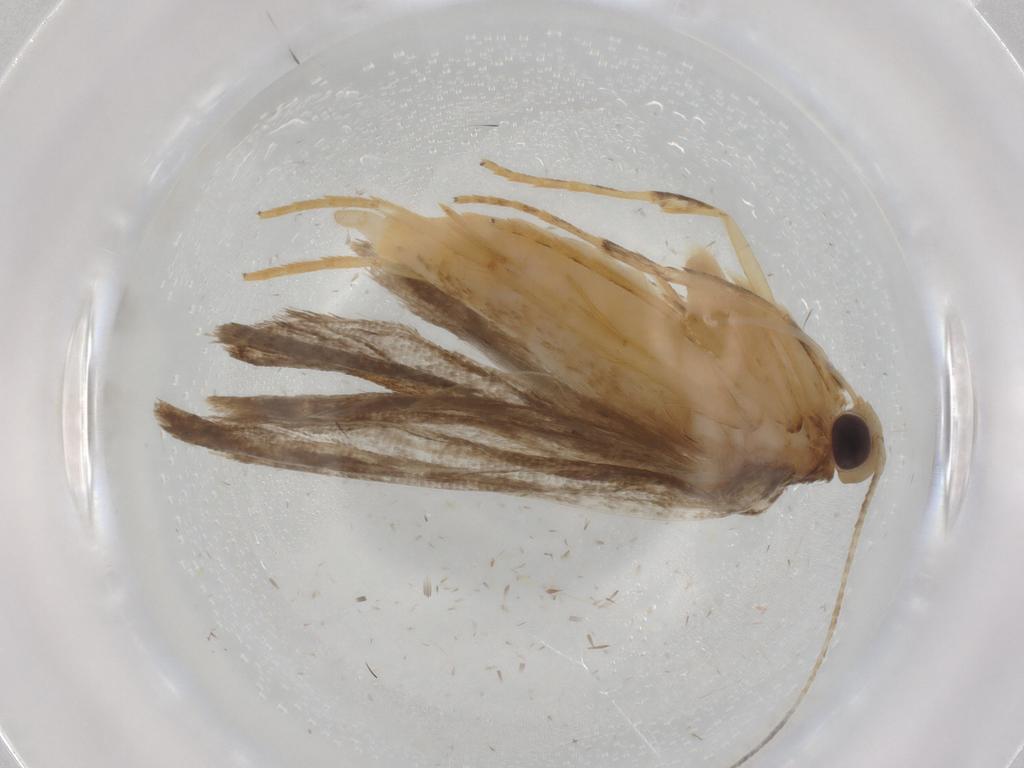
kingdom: Animalia
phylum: Arthropoda
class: Insecta
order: Lepidoptera
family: Oecophoridae
